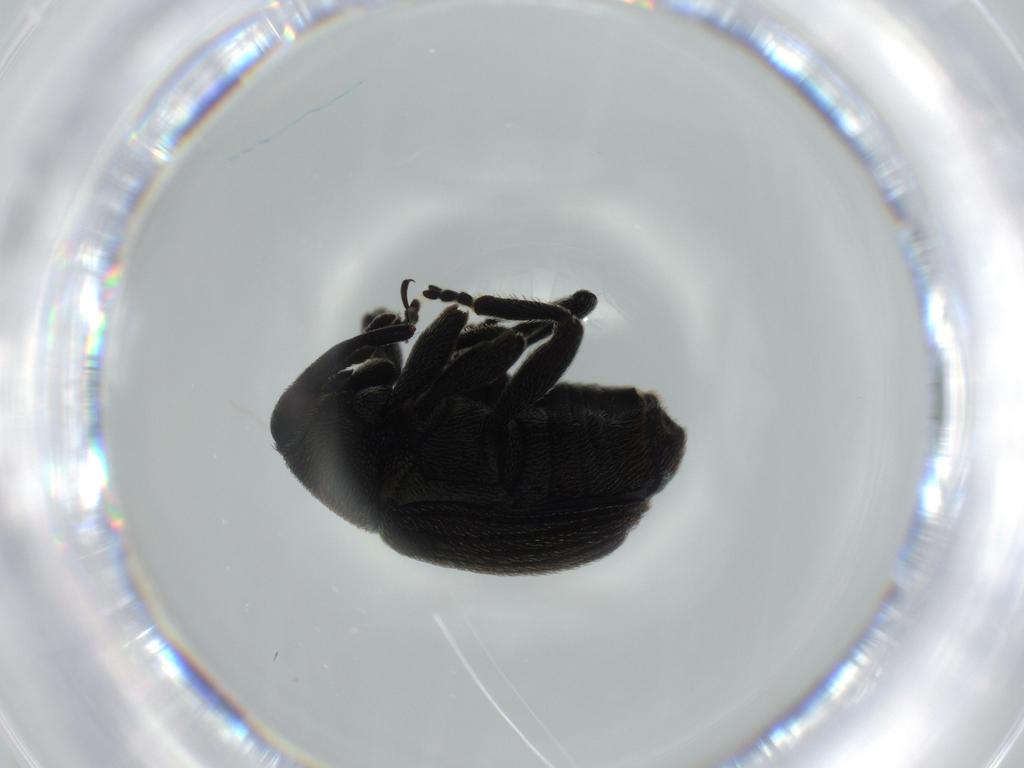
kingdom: Animalia
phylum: Arthropoda
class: Insecta
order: Coleoptera
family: Curculionidae
